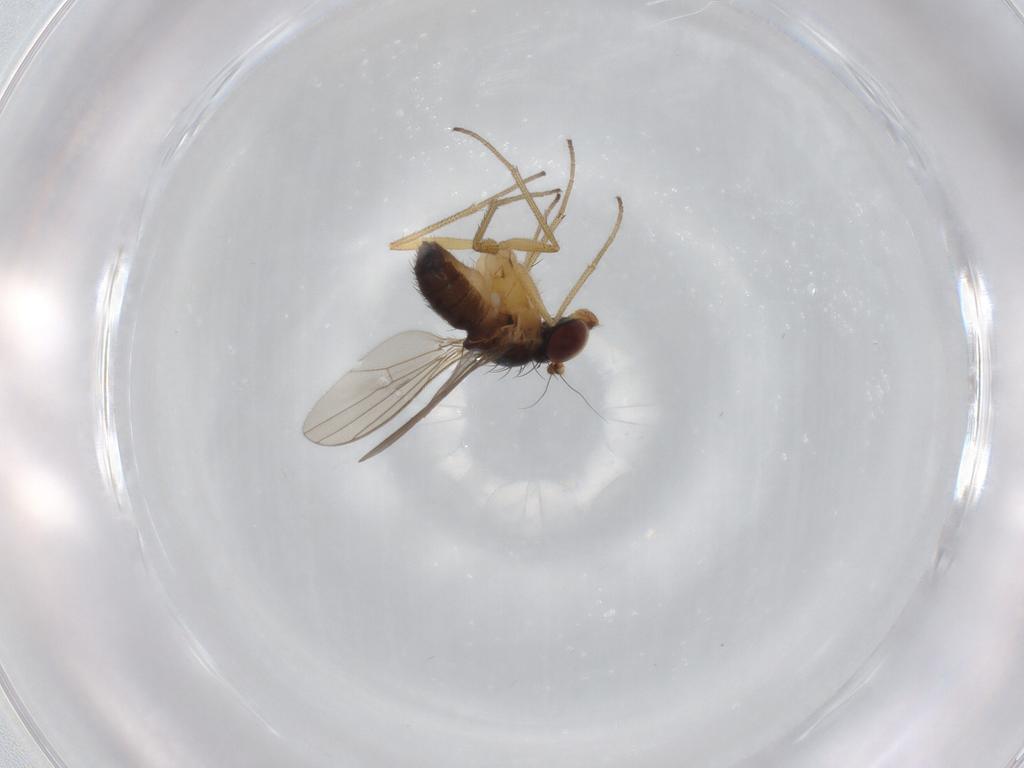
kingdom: Animalia
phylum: Arthropoda
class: Insecta
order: Diptera
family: Dolichopodidae
